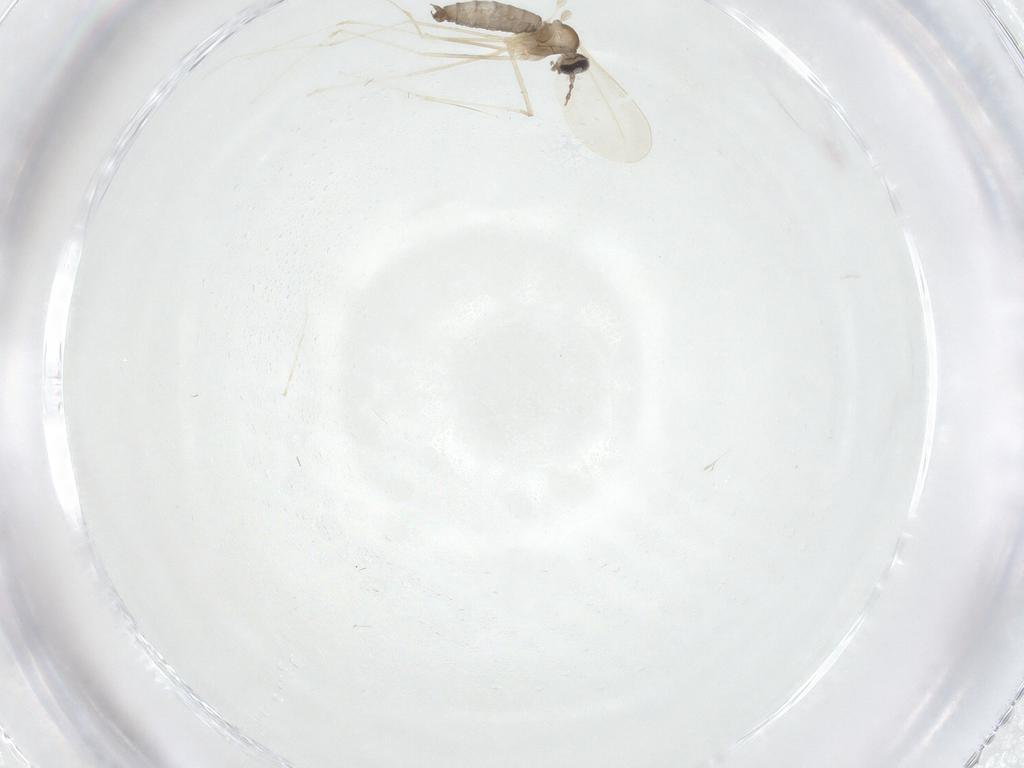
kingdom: Animalia
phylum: Arthropoda
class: Insecta
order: Diptera
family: Cecidomyiidae
